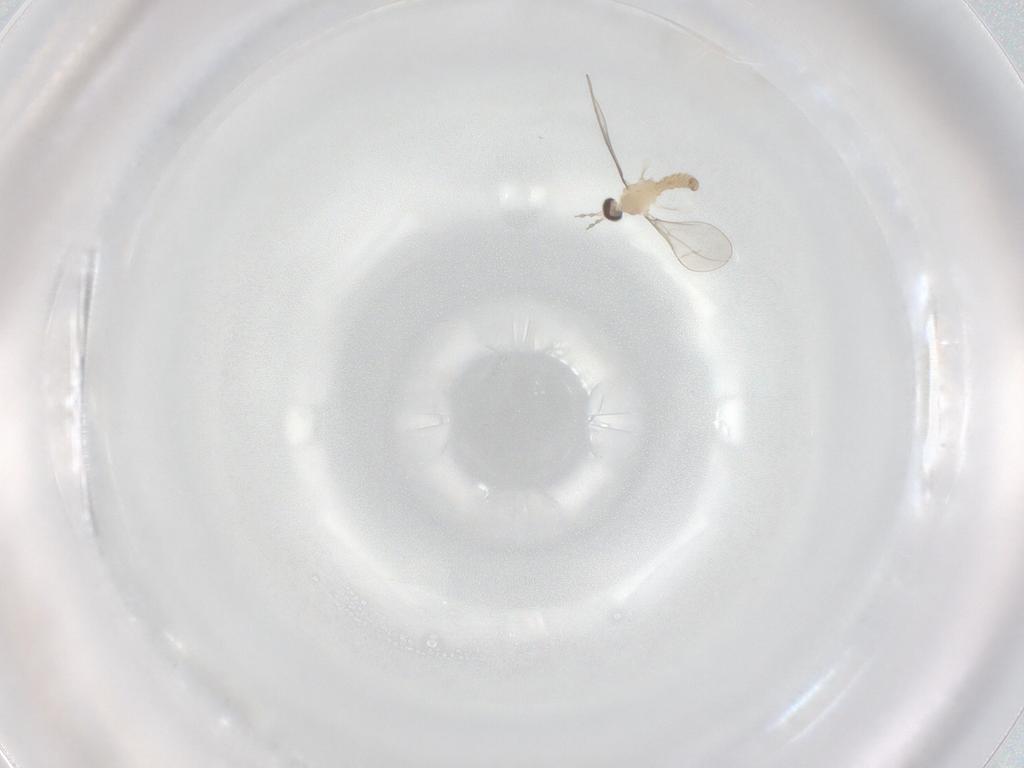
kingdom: Animalia
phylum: Arthropoda
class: Insecta
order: Diptera
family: Cecidomyiidae
